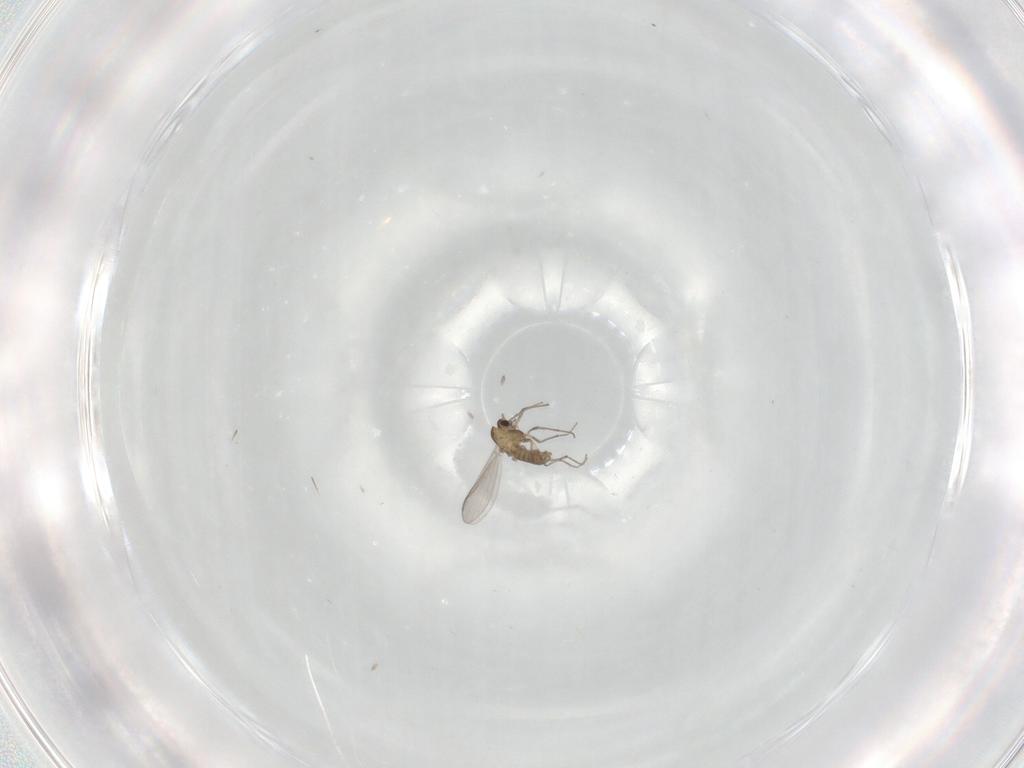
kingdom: Animalia
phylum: Arthropoda
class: Insecta
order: Diptera
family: Chironomidae
